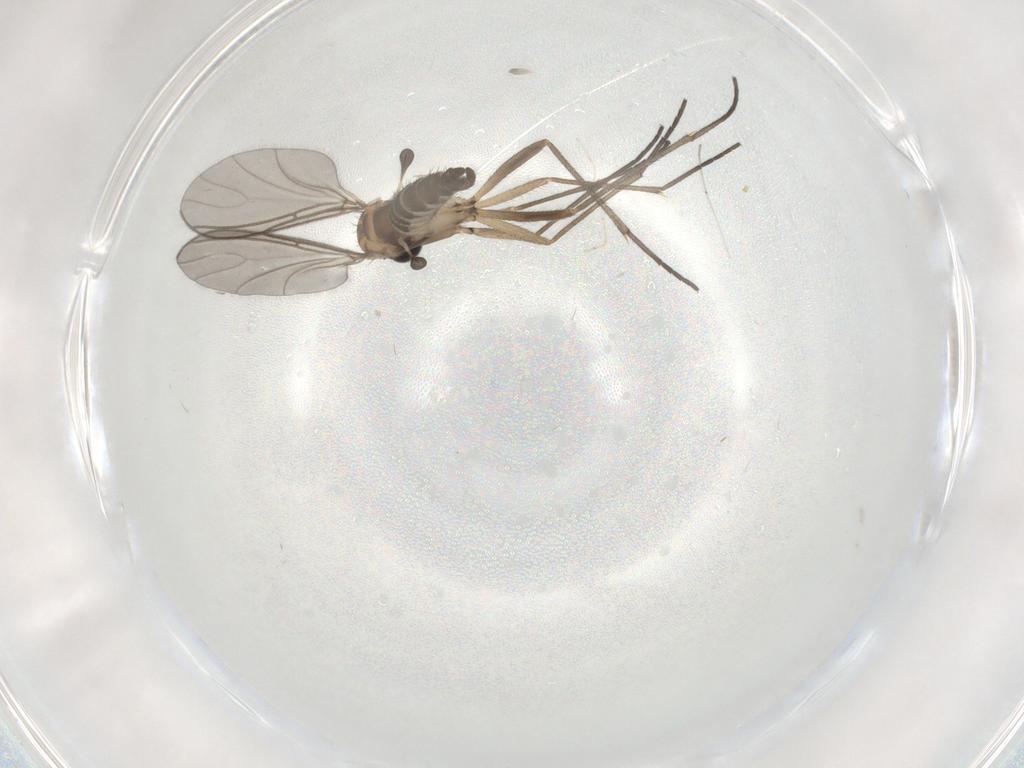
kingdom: Animalia
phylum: Arthropoda
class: Insecta
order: Diptera
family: Sciaridae
